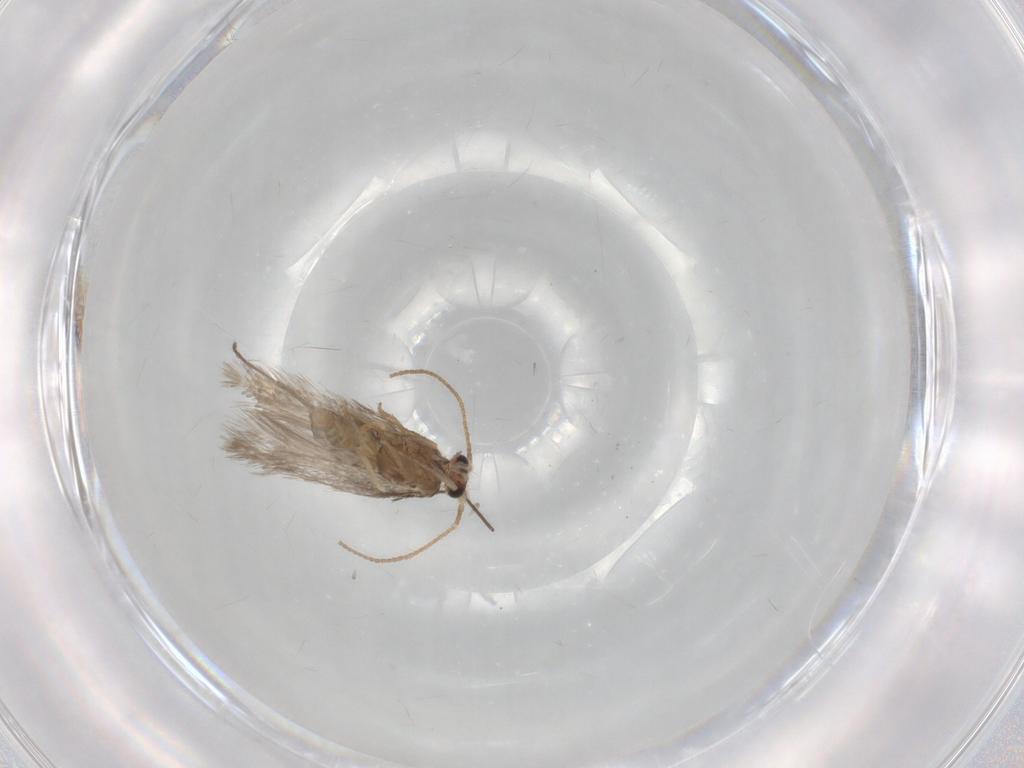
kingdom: Animalia
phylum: Arthropoda
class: Insecta
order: Lepidoptera
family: Nepticulidae
